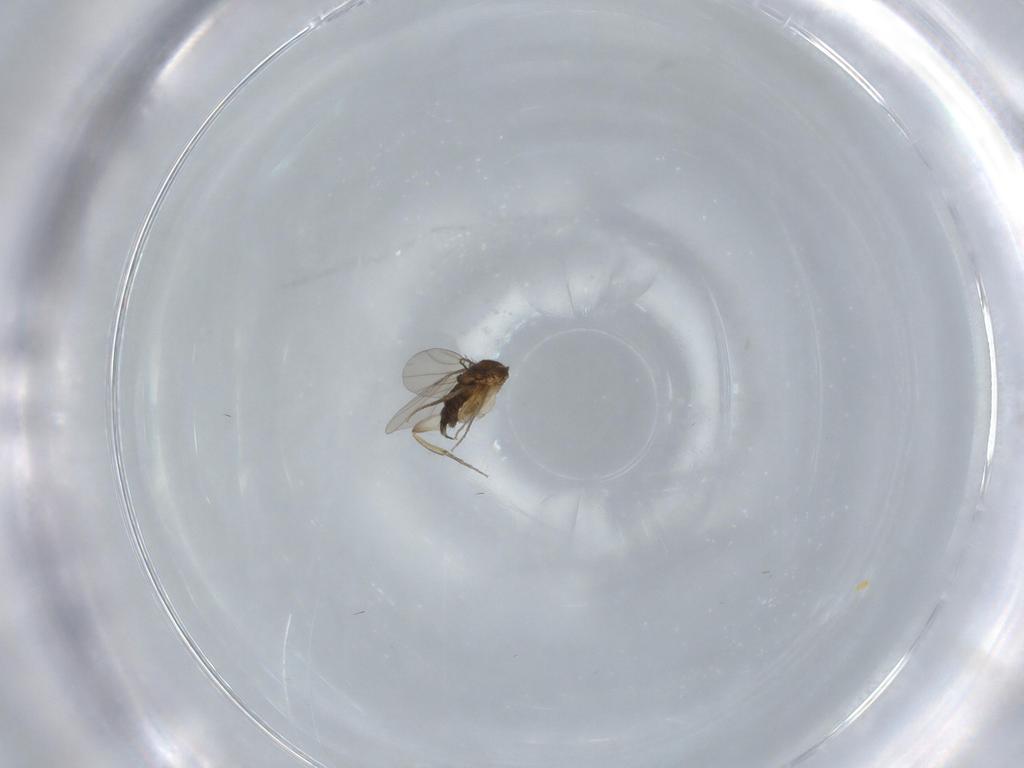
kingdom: Animalia
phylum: Arthropoda
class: Insecta
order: Diptera
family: Phoridae
